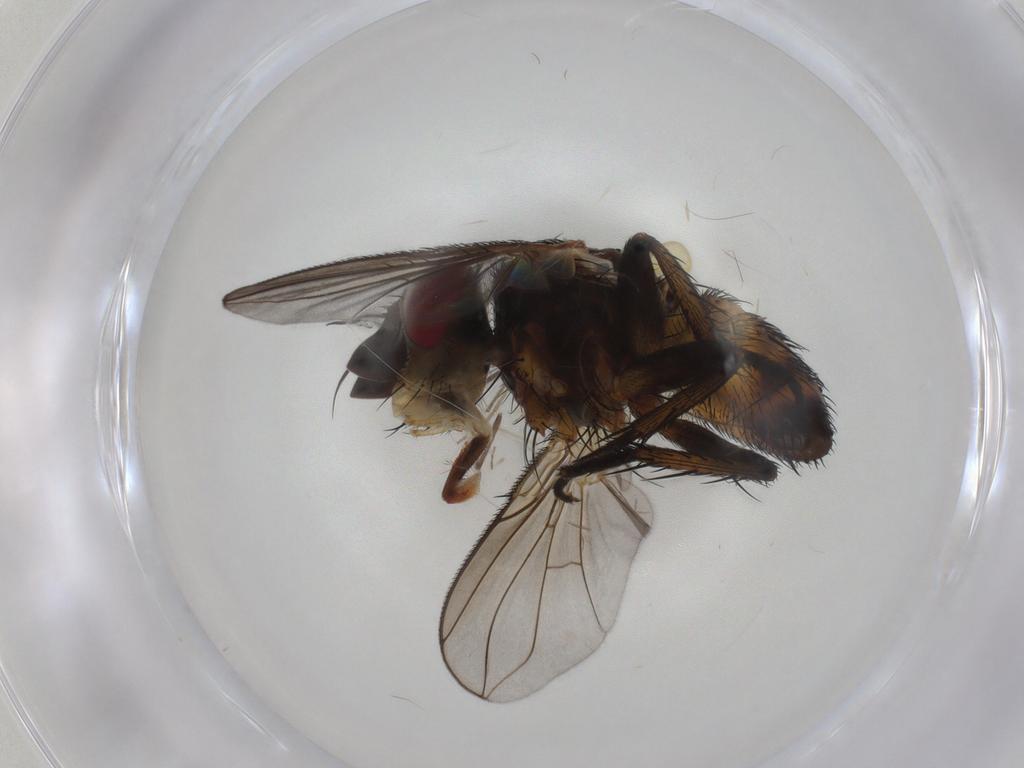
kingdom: Animalia
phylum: Arthropoda
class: Insecta
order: Diptera
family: Tachinidae
